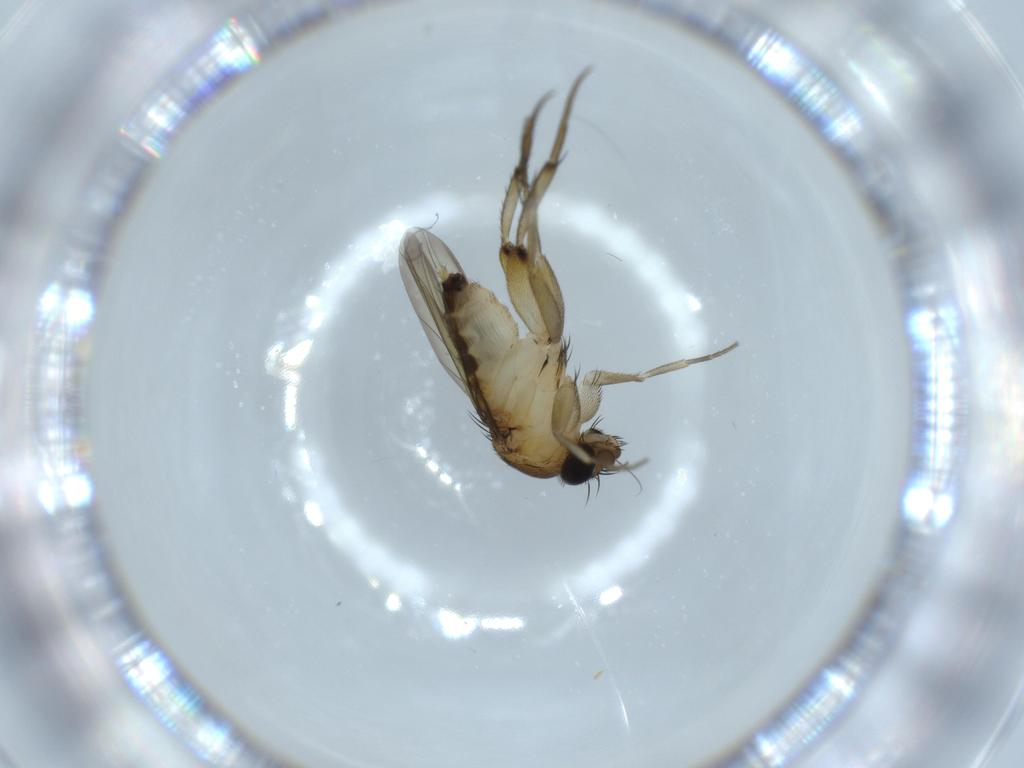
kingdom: Animalia
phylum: Arthropoda
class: Insecta
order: Diptera
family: Phoridae
